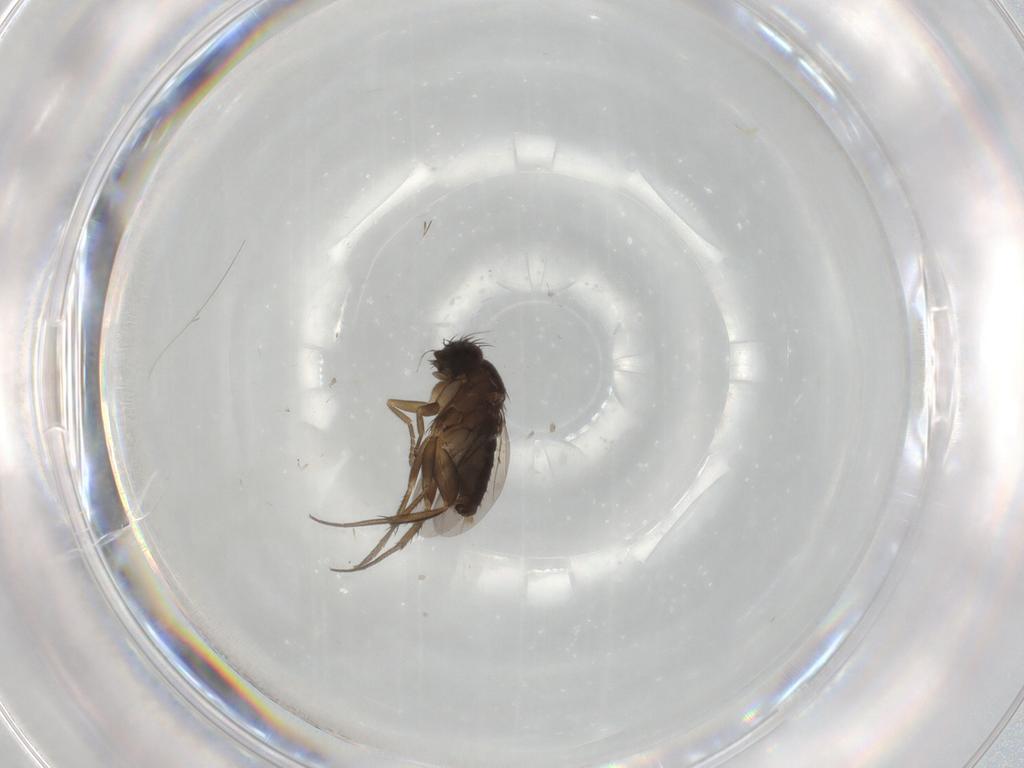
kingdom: Animalia
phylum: Arthropoda
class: Insecta
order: Diptera
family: Phoridae
